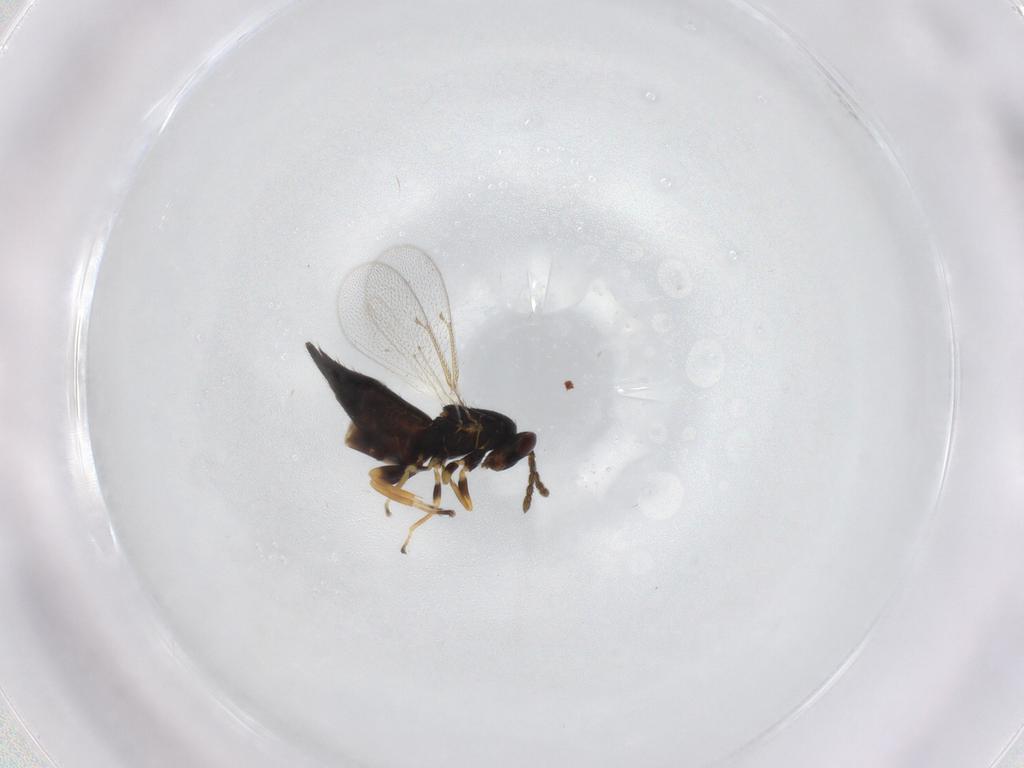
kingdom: Animalia
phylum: Arthropoda
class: Insecta
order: Hymenoptera
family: Eulophidae
